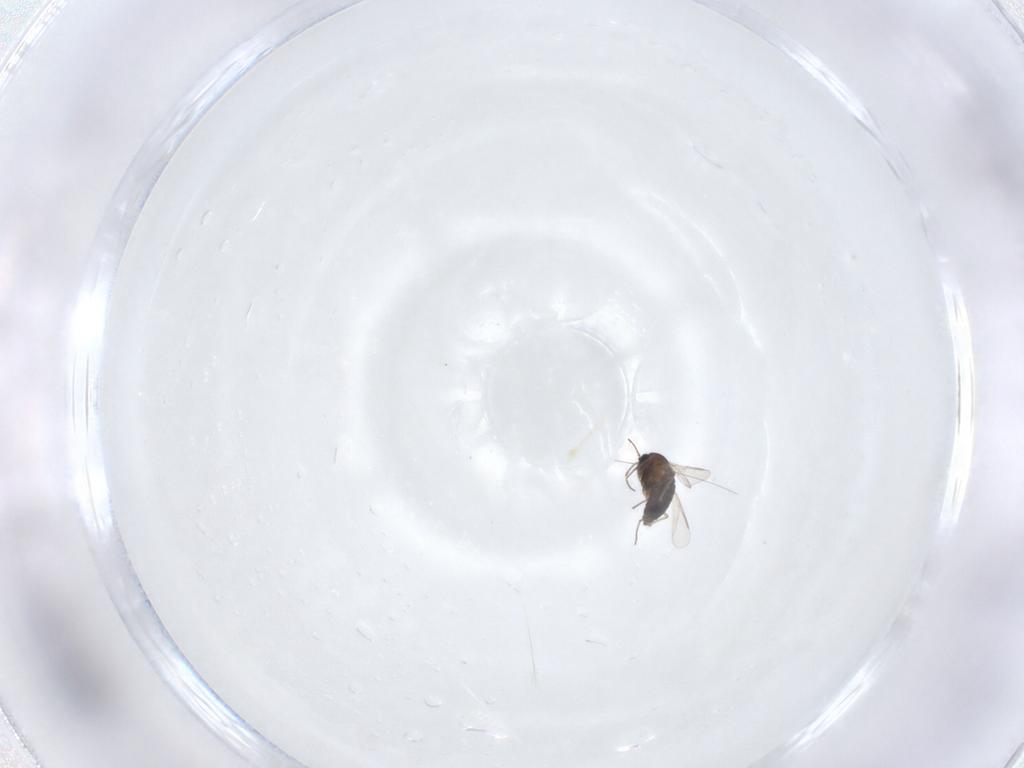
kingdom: Animalia
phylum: Arthropoda
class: Insecta
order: Diptera
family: Chironomidae
